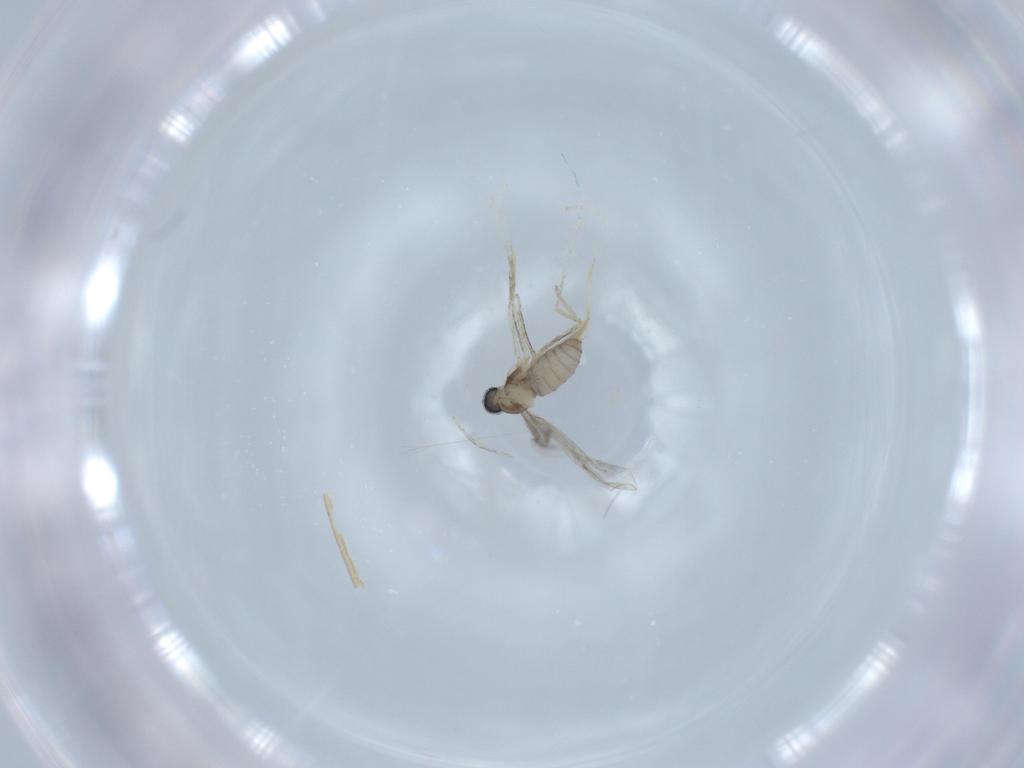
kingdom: Animalia
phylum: Arthropoda
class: Insecta
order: Diptera
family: Cecidomyiidae
